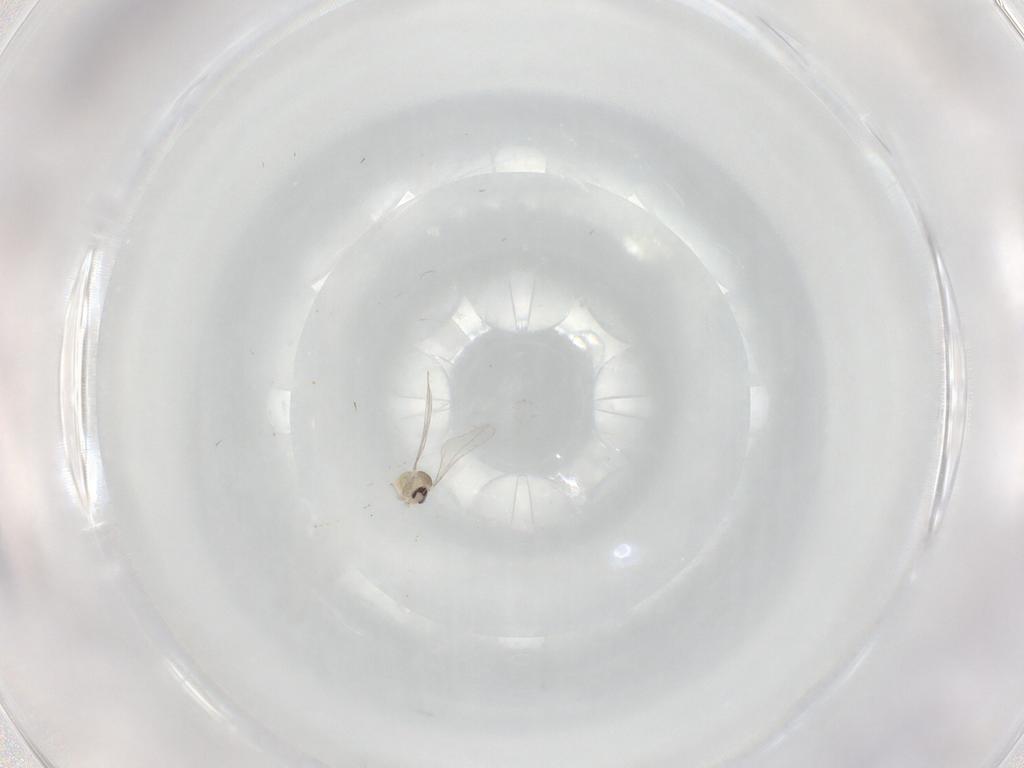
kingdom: Animalia
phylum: Arthropoda
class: Insecta
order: Diptera
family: Cecidomyiidae
